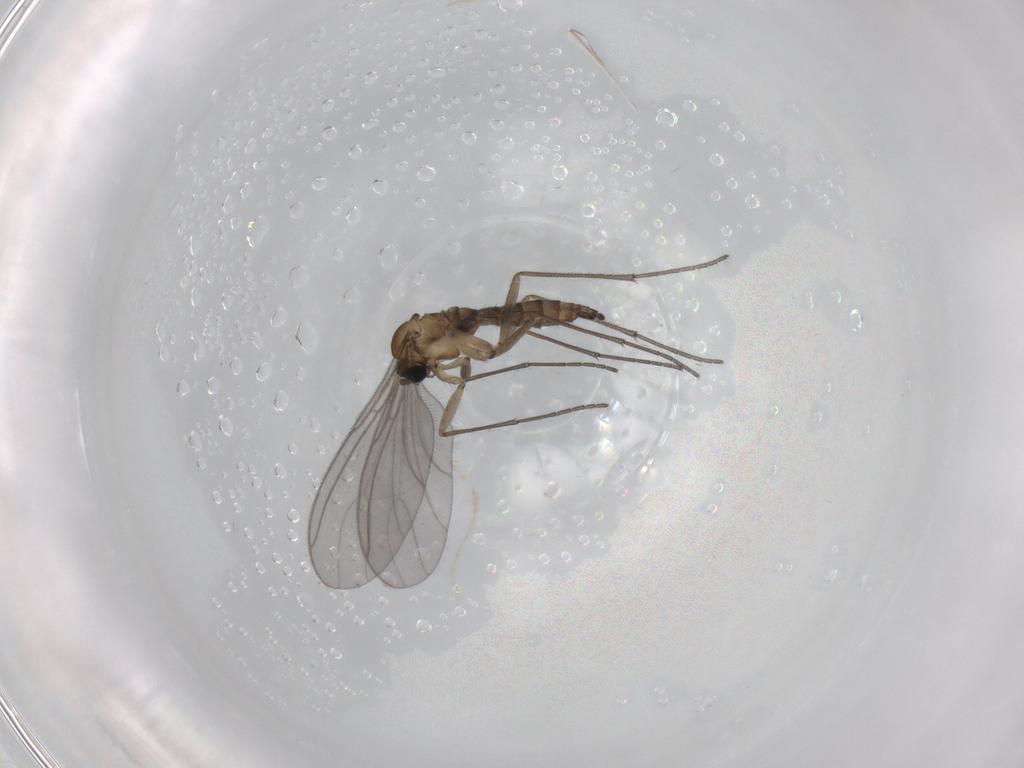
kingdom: Animalia
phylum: Arthropoda
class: Insecta
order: Diptera
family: Sciaridae
